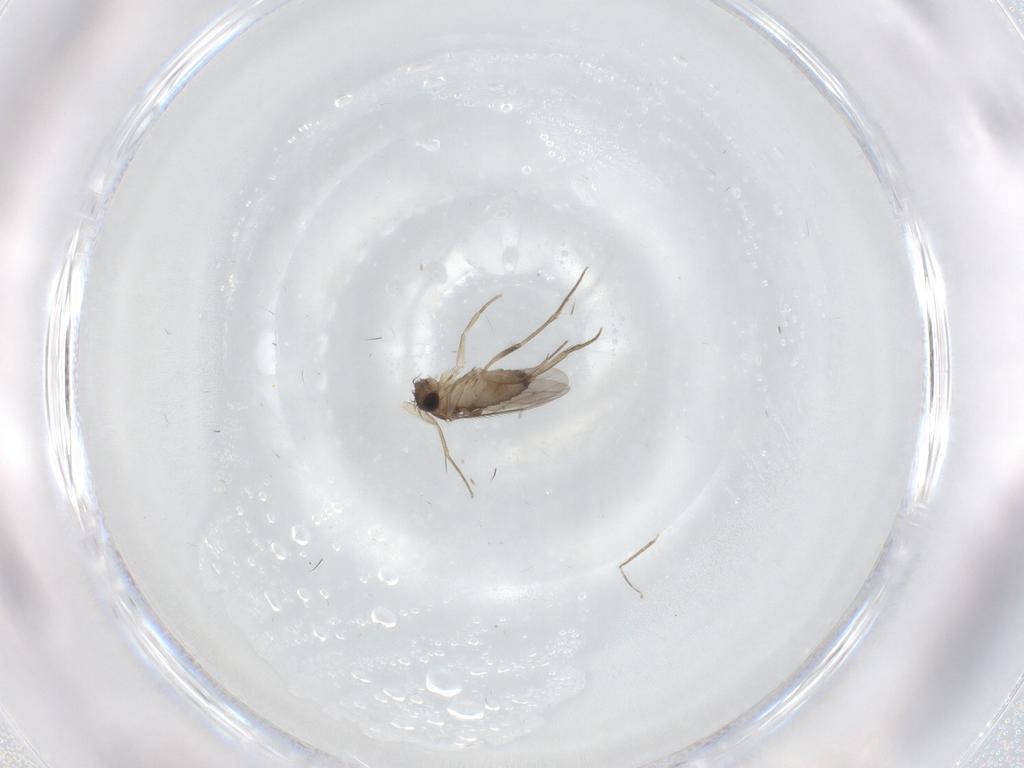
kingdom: Animalia
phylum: Arthropoda
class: Insecta
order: Diptera
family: Phoridae
